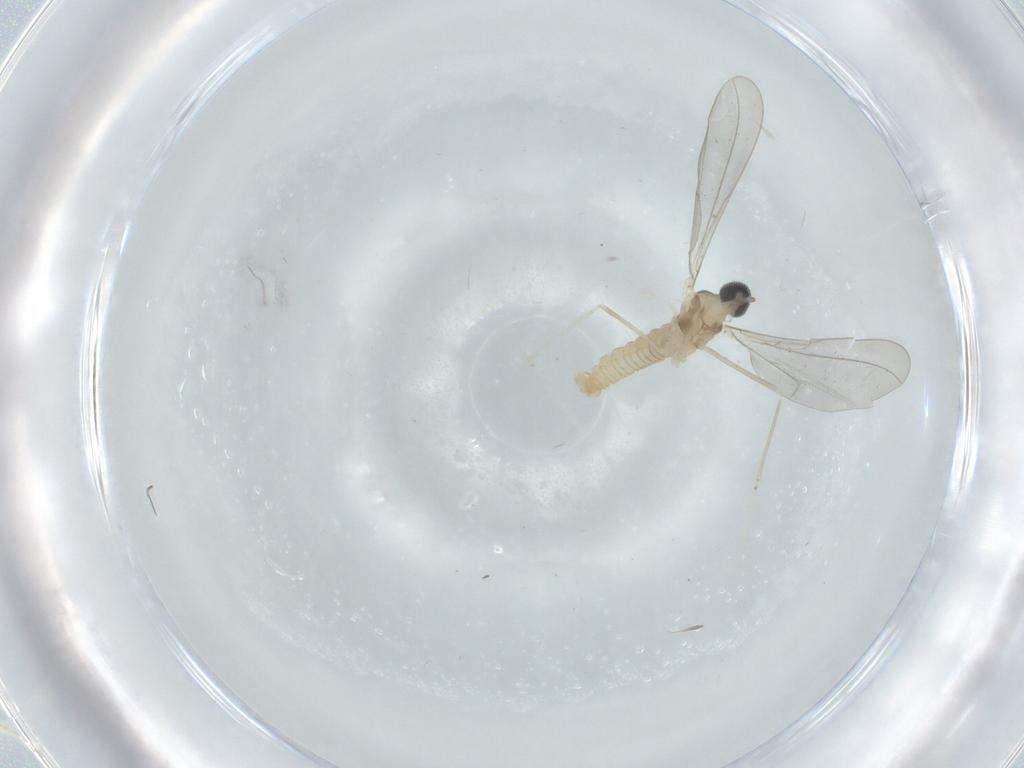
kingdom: Animalia
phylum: Arthropoda
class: Insecta
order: Diptera
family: Cecidomyiidae
